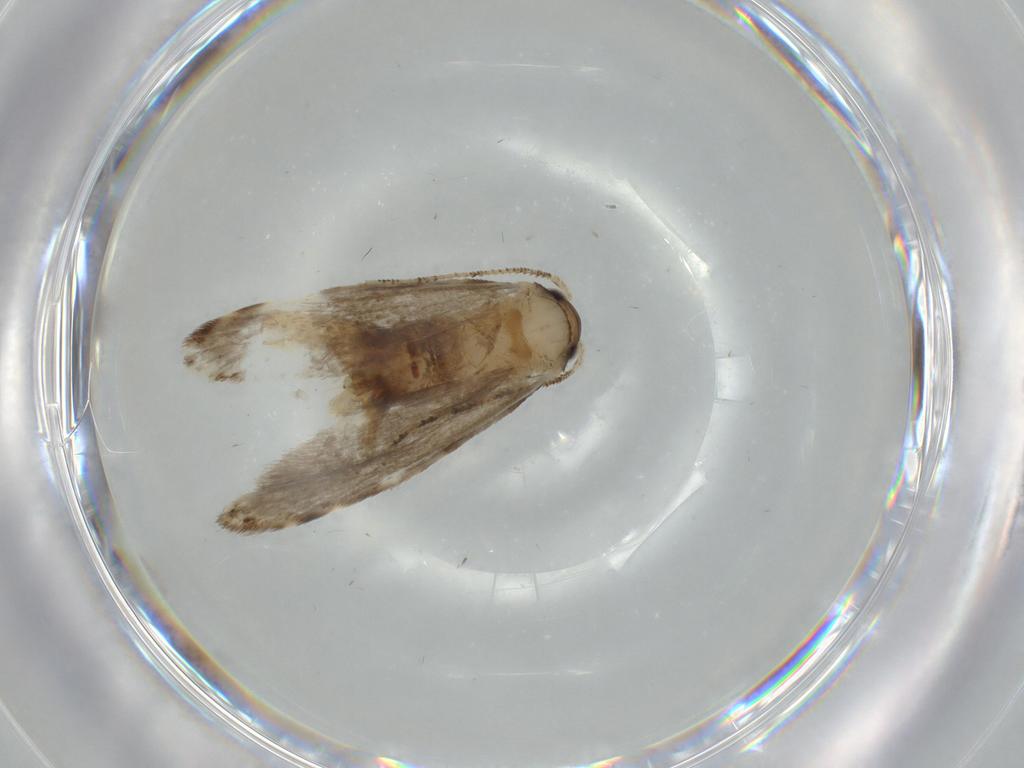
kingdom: Animalia
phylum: Arthropoda
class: Insecta
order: Lepidoptera
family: Tineidae
